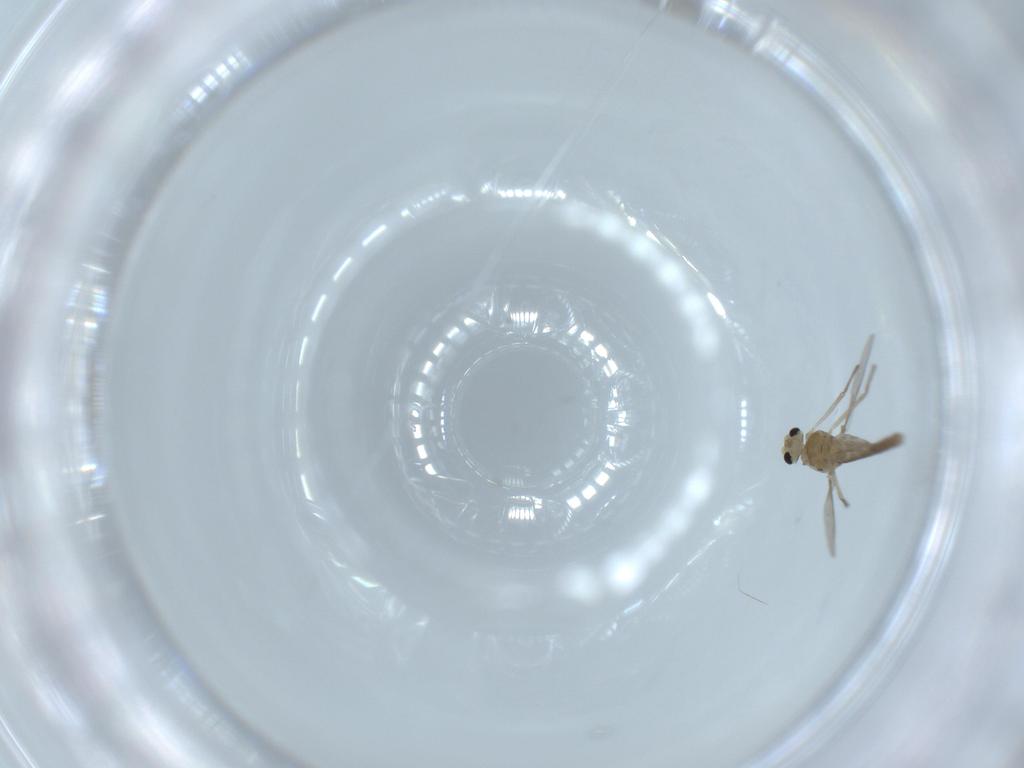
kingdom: Animalia
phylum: Arthropoda
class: Insecta
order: Diptera
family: Chironomidae
